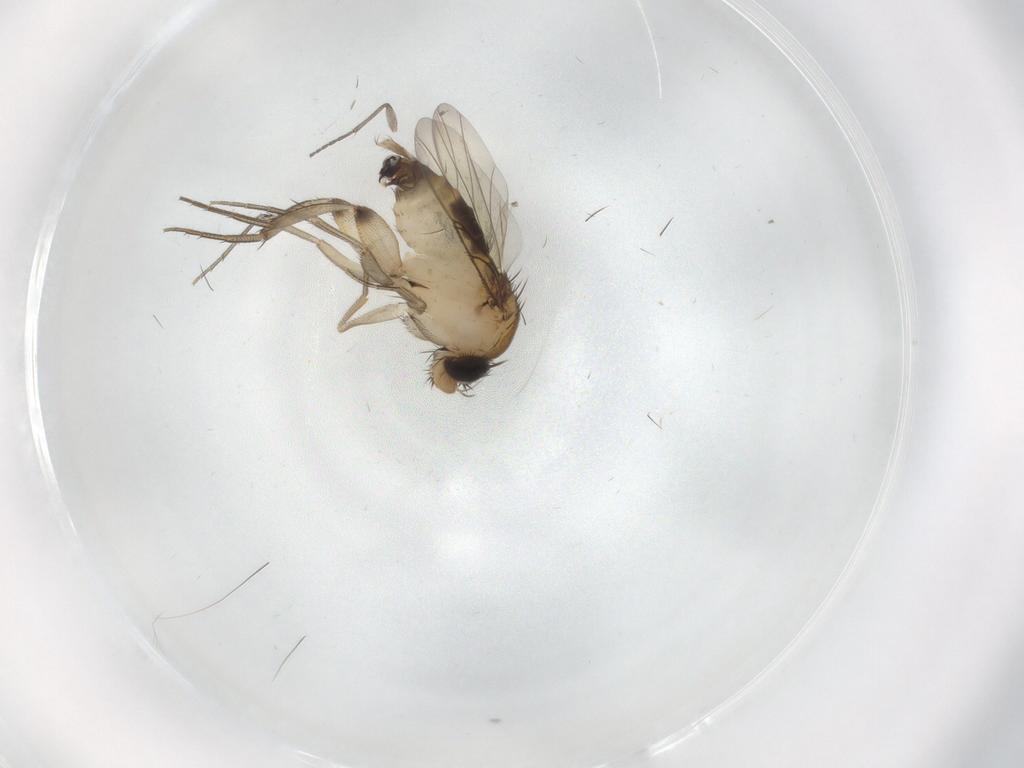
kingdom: Animalia
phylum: Arthropoda
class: Insecta
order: Diptera
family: Phoridae
